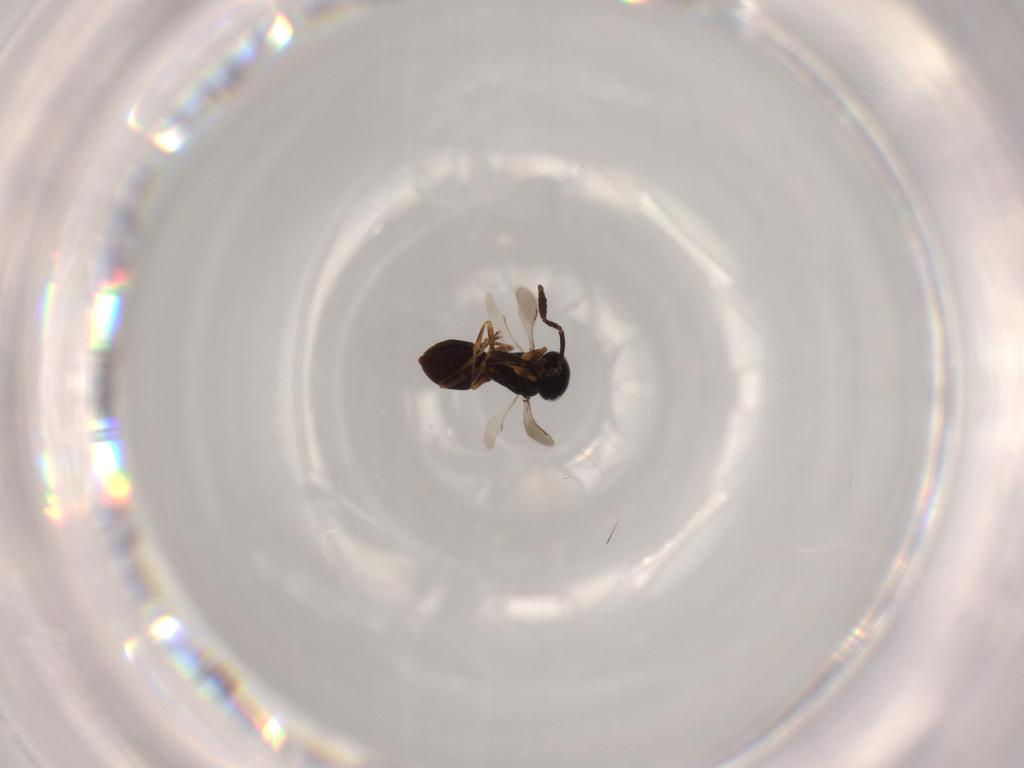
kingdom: Animalia
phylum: Arthropoda
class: Insecta
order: Hymenoptera
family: Scelionidae
